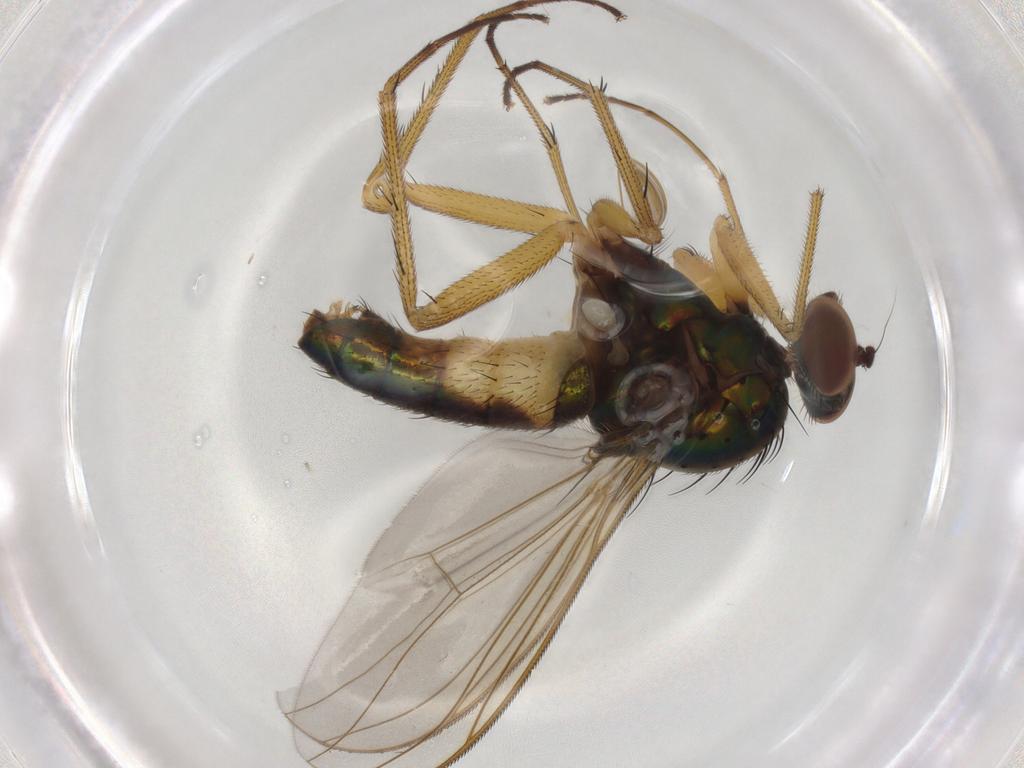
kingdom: Animalia
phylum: Arthropoda
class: Insecta
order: Diptera
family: Psychodidae
